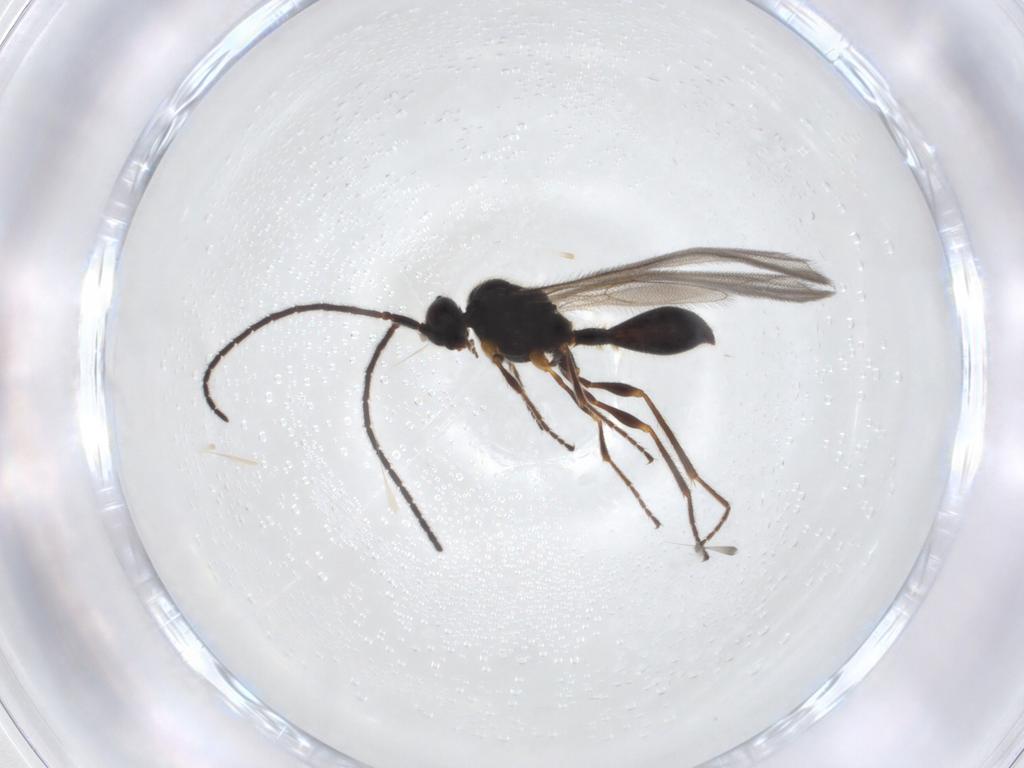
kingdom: Animalia
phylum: Arthropoda
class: Insecta
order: Hymenoptera
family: Diapriidae
